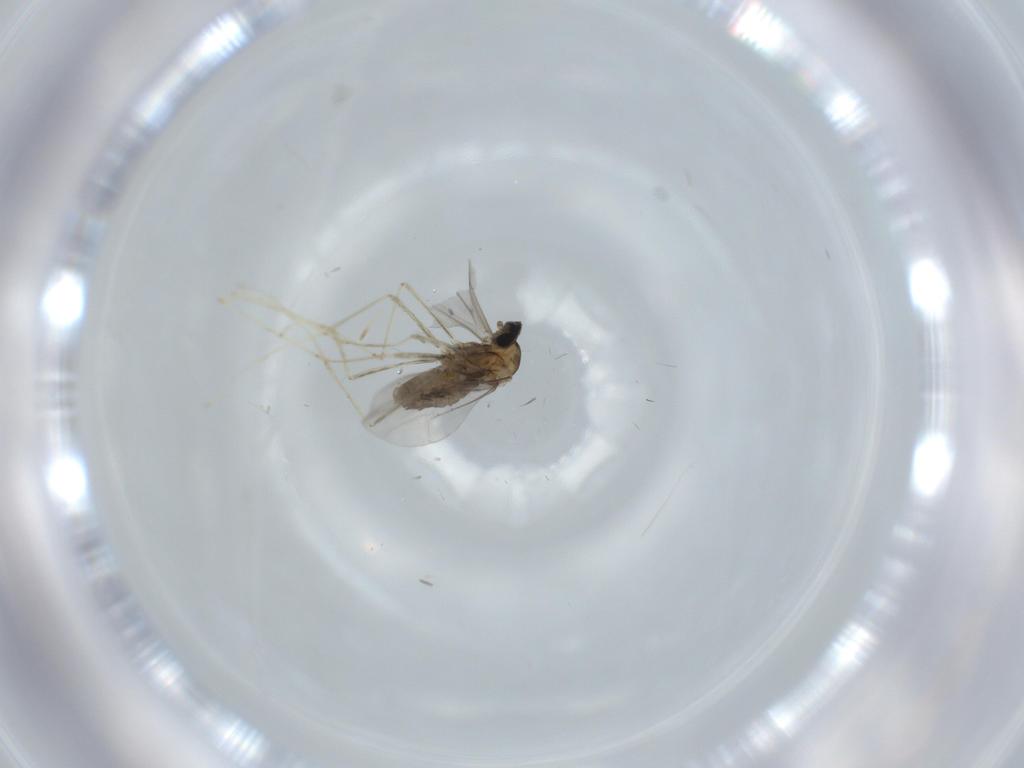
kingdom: Animalia
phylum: Arthropoda
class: Insecta
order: Diptera
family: Cecidomyiidae
